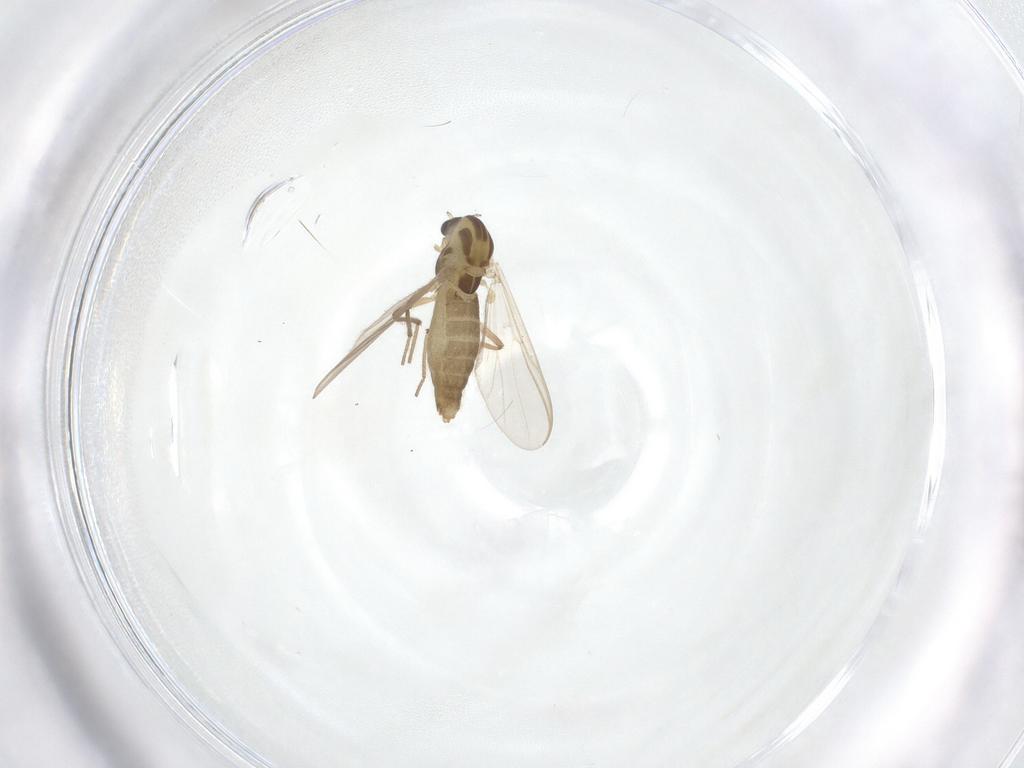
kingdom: Animalia
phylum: Arthropoda
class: Insecta
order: Diptera
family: Chironomidae
